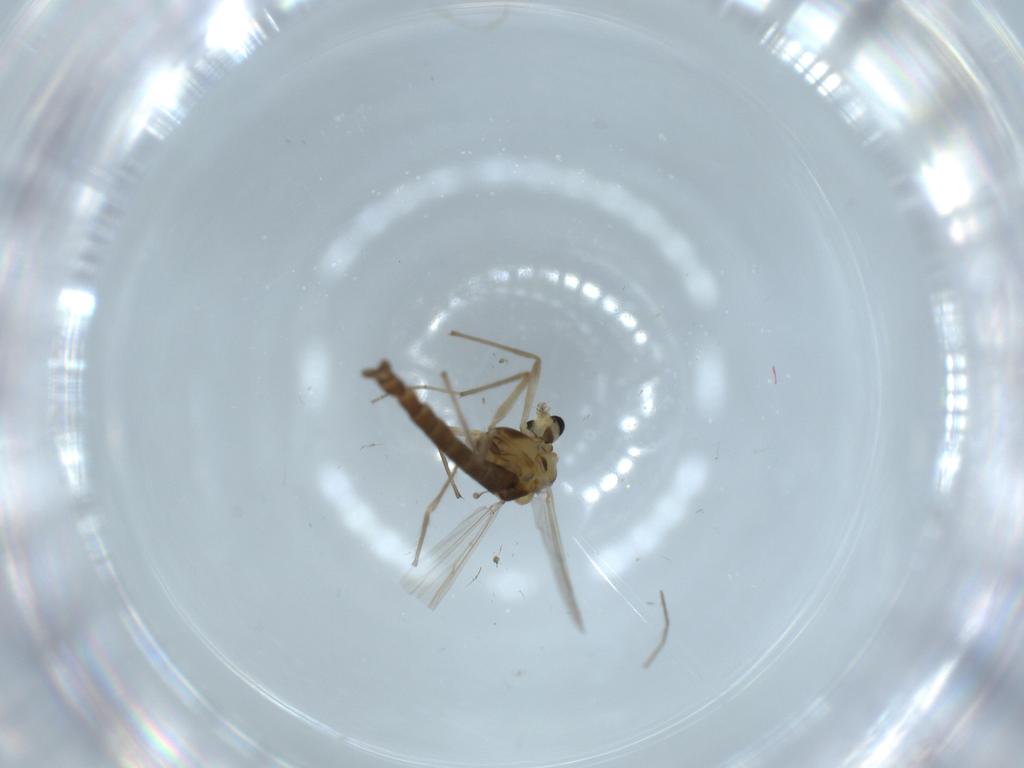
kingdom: Animalia
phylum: Arthropoda
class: Insecta
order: Diptera
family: Chironomidae
